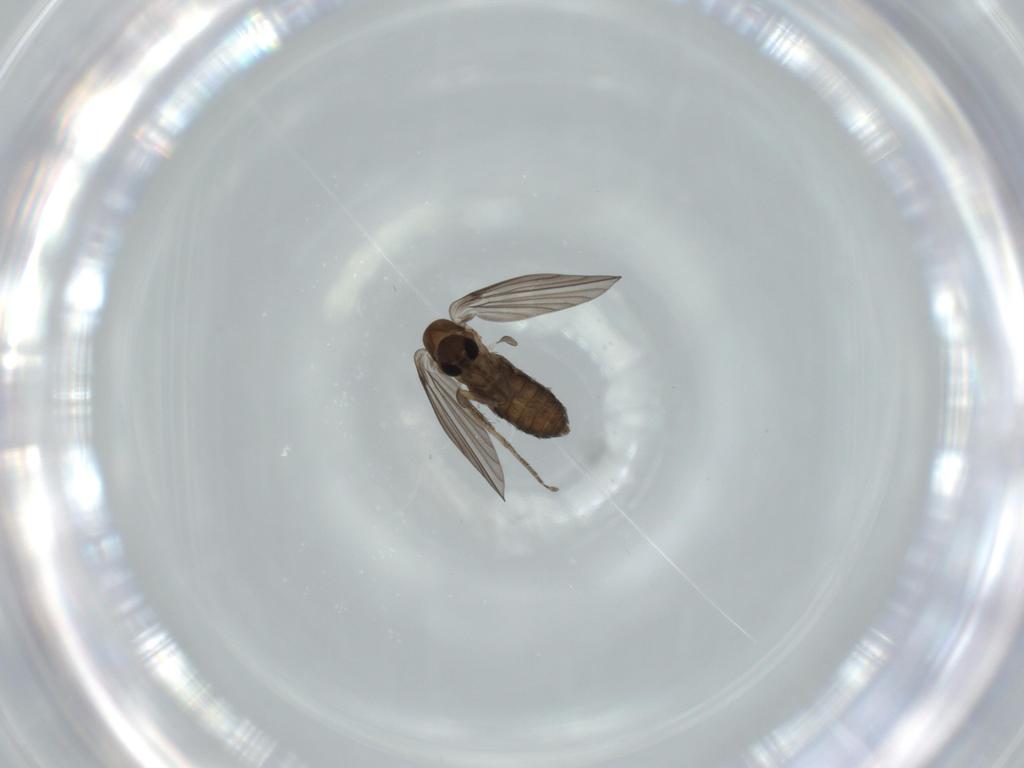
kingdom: Animalia
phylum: Arthropoda
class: Insecta
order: Diptera
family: Psychodidae
